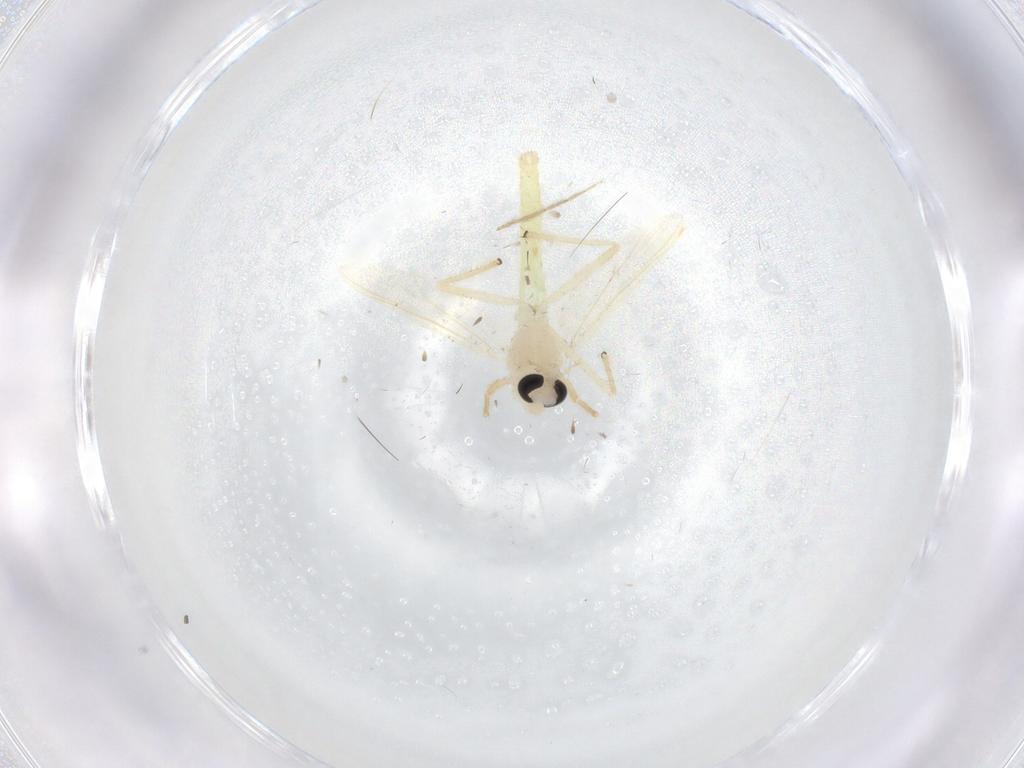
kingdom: Animalia
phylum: Arthropoda
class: Insecta
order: Diptera
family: Chironomidae
